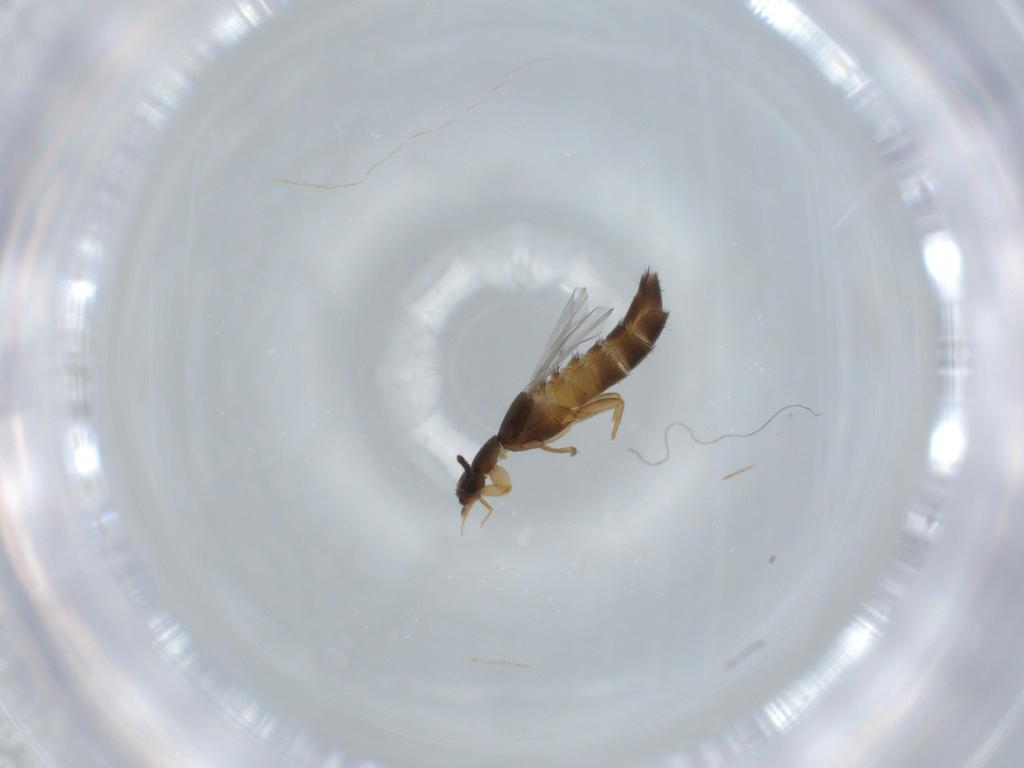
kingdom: Animalia
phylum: Arthropoda
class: Insecta
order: Coleoptera
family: Staphylinidae
